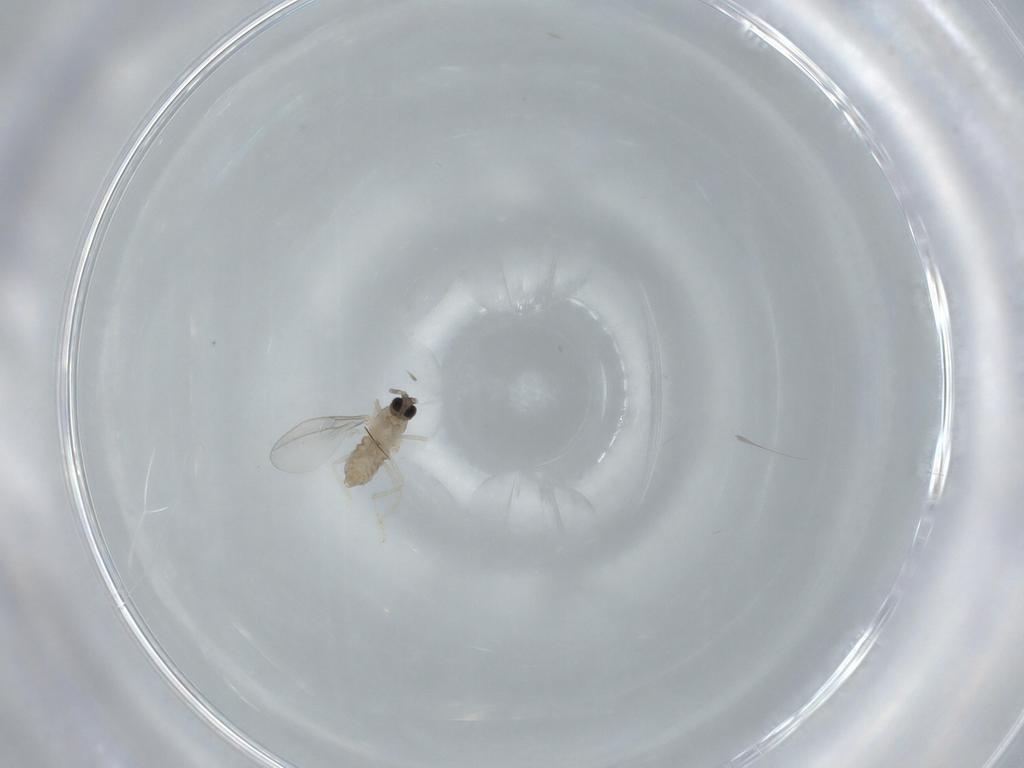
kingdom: Animalia
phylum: Arthropoda
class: Insecta
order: Diptera
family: Cecidomyiidae
